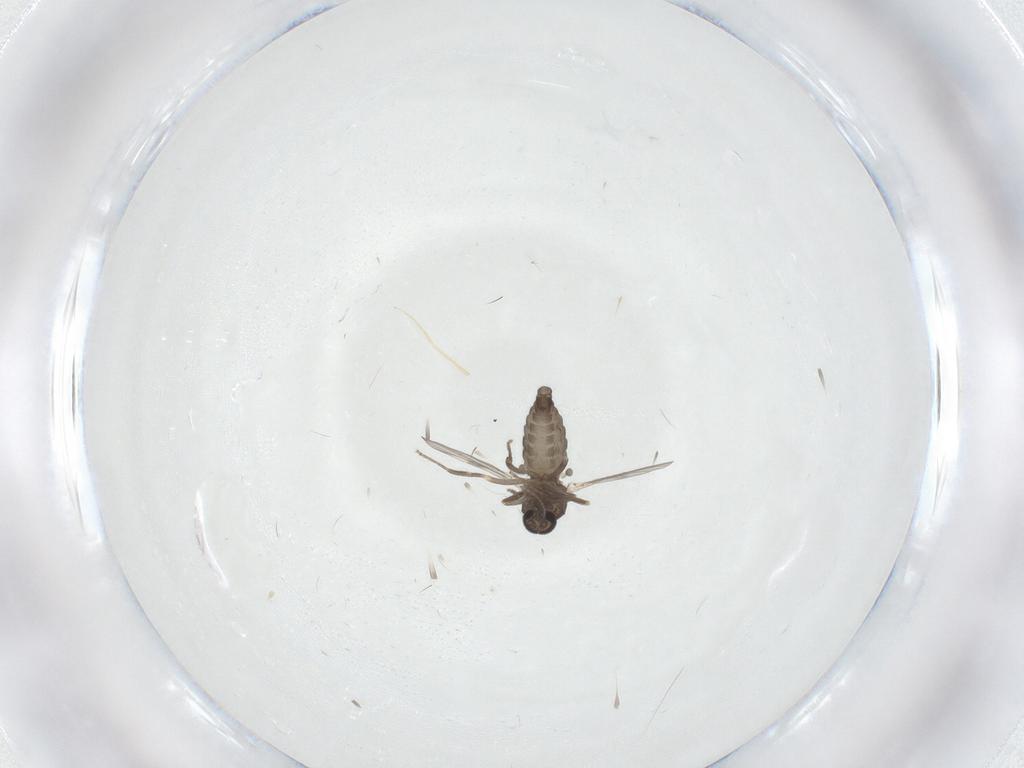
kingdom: Animalia
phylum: Arthropoda
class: Insecta
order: Diptera
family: Ceratopogonidae
